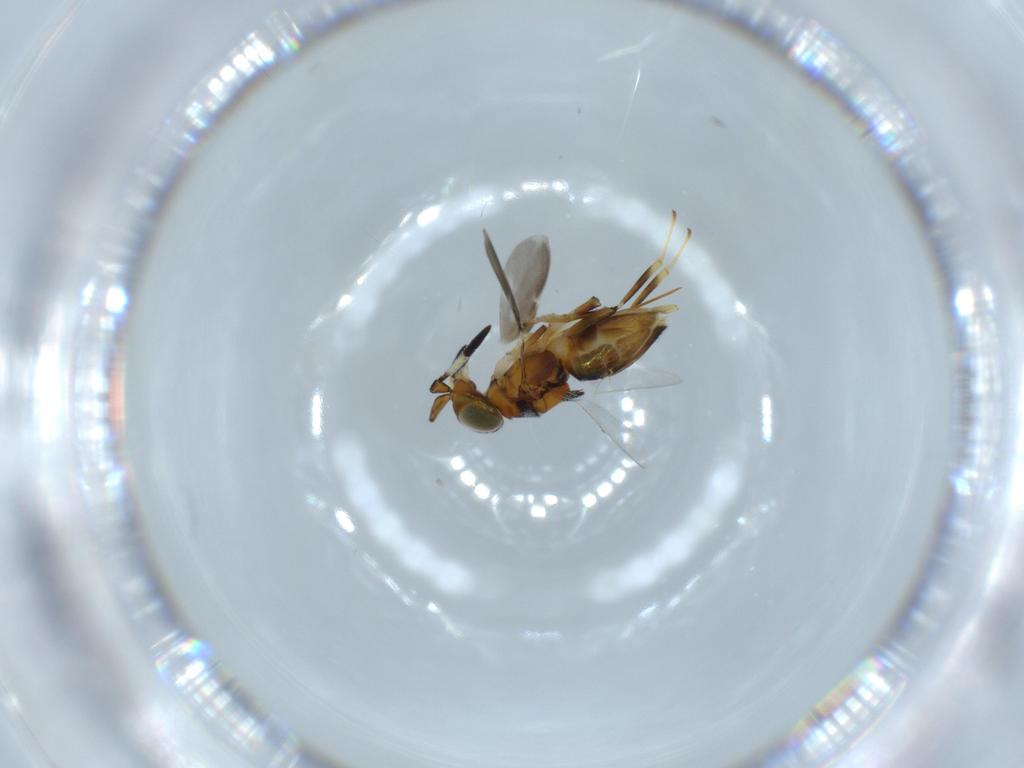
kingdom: Animalia
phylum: Arthropoda
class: Insecta
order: Hymenoptera
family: Encyrtidae
